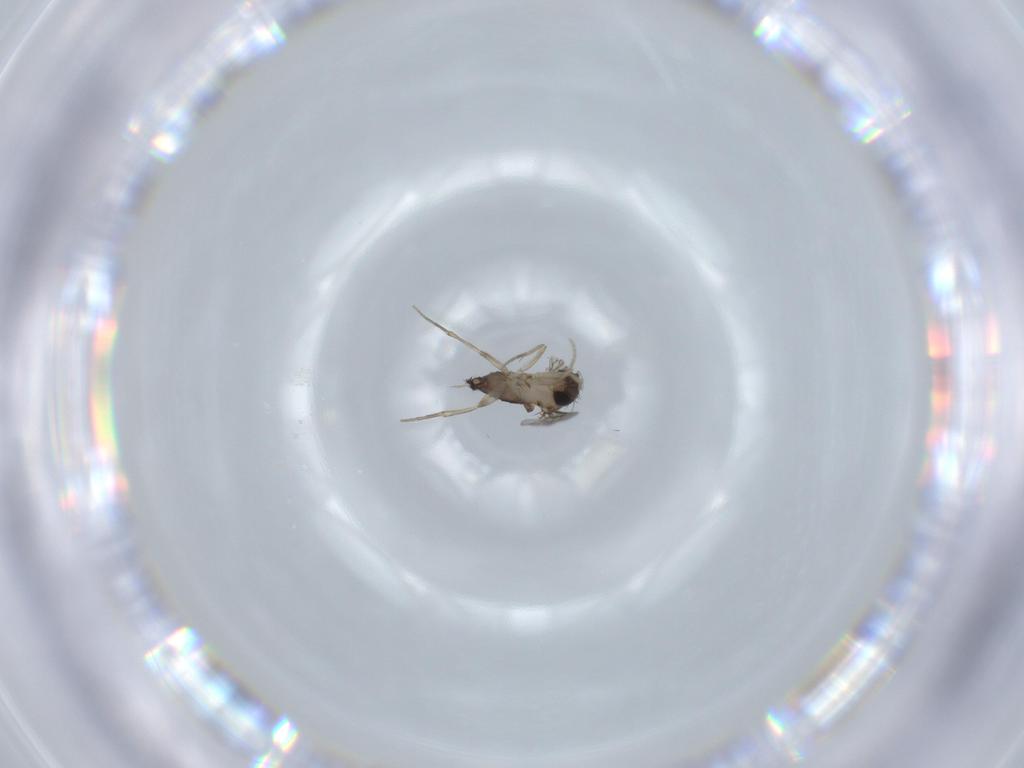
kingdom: Animalia
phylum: Arthropoda
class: Insecta
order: Diptera
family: Phoridae
